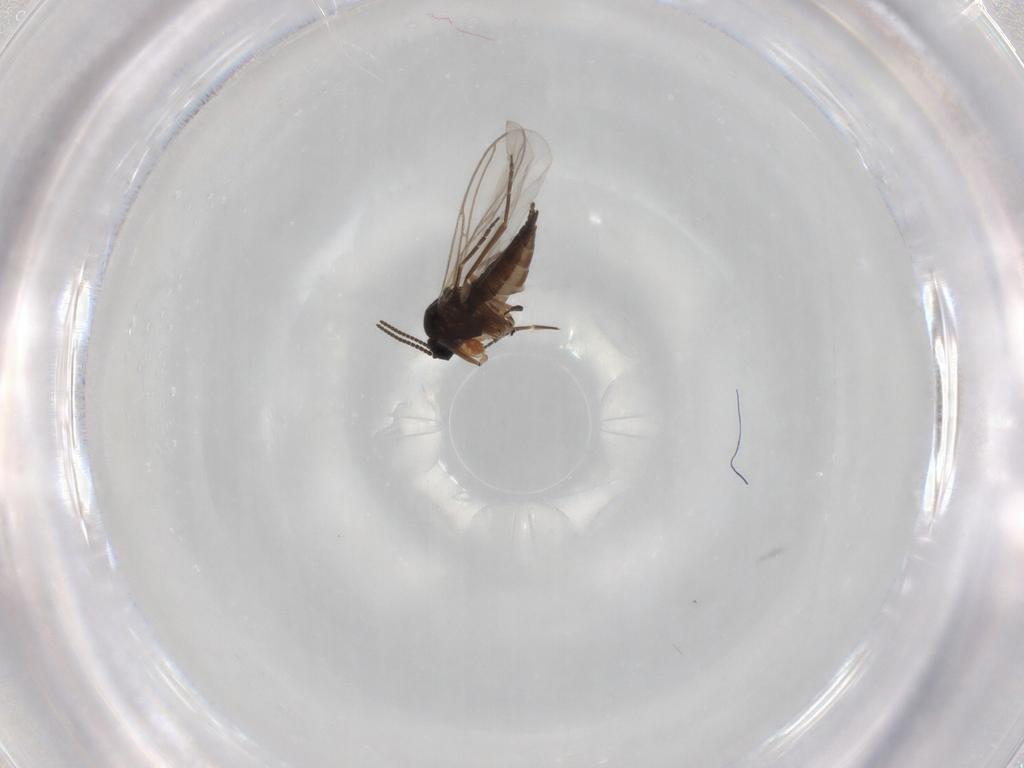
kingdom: Animalia
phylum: Arthropoda
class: Insecta
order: Diptera
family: Sciaridae
